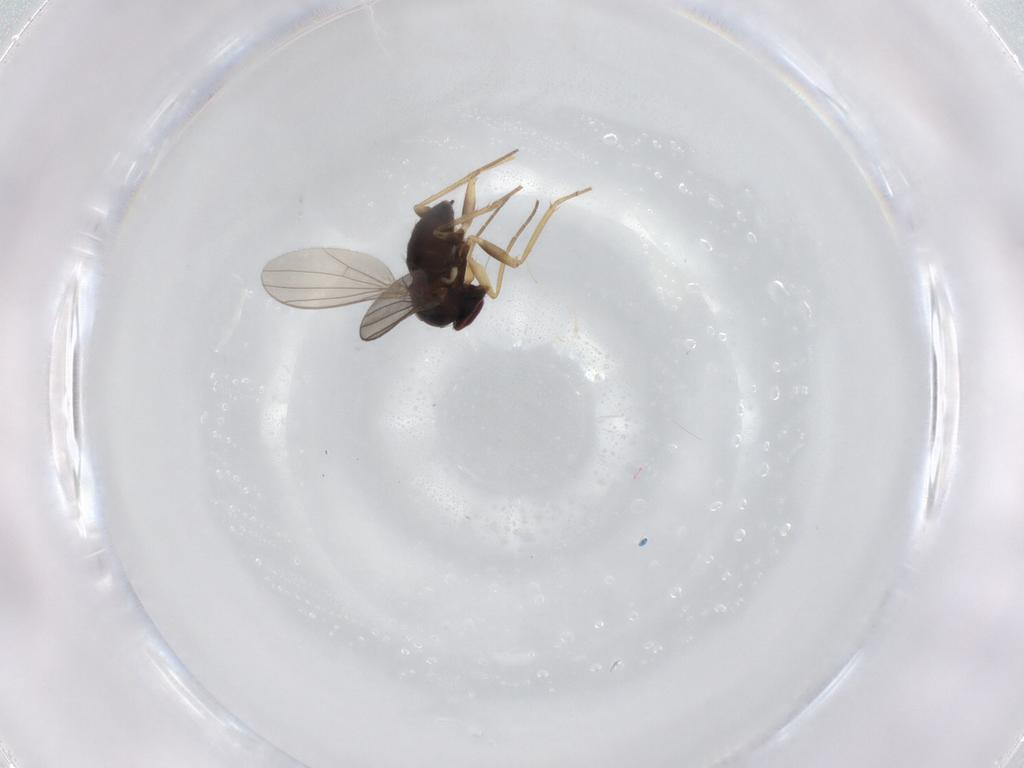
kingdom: Animalia
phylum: Arthropoda
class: Insecta
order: Diptera
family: Dolichopodidae
